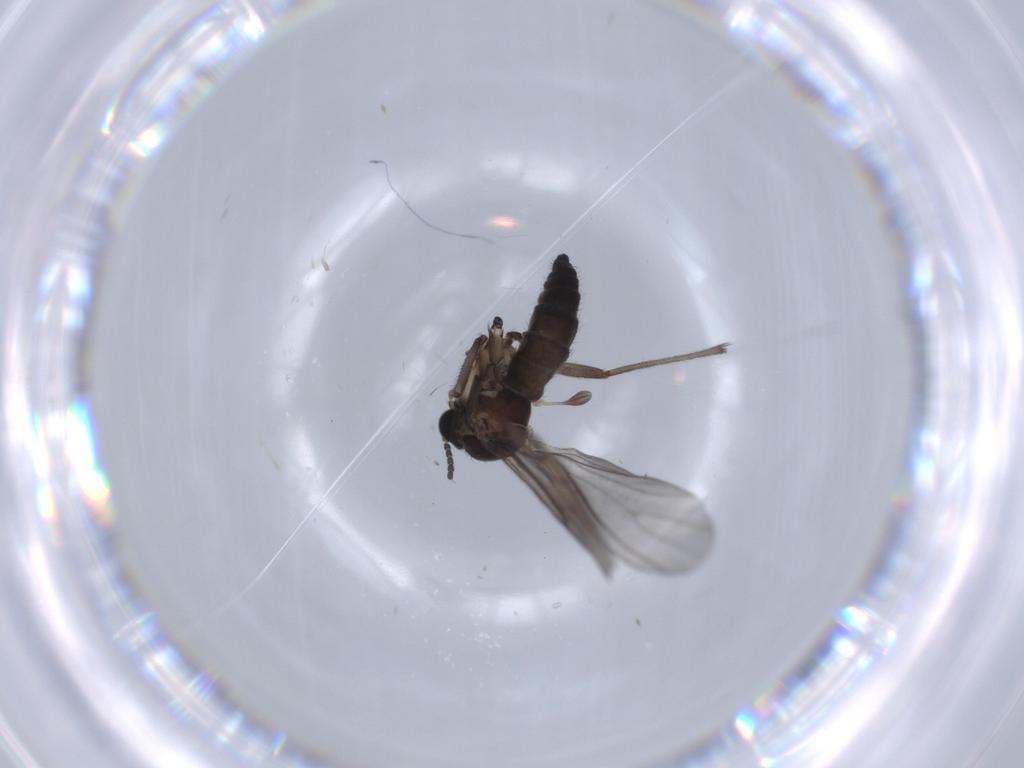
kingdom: Animalia
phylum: Arthropoda
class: Insecta
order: Diptera
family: Sciaridae
